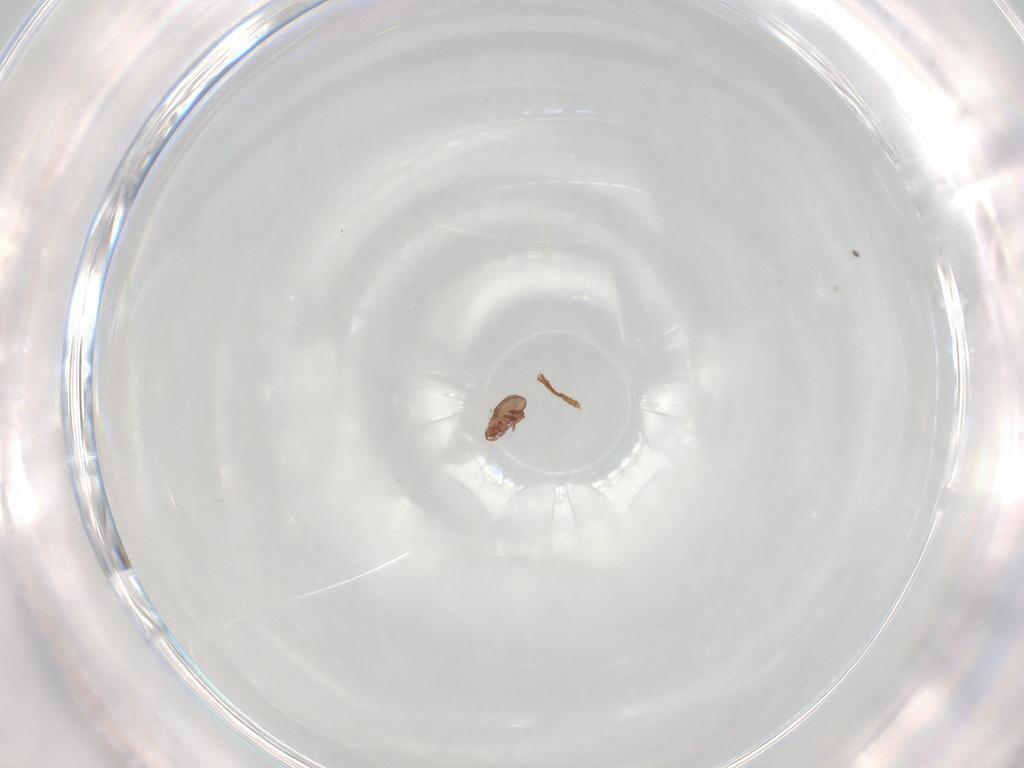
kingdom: Animalia
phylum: Arthropoda
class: Arachnida
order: Sarcoptiformes
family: Eremaeidae
